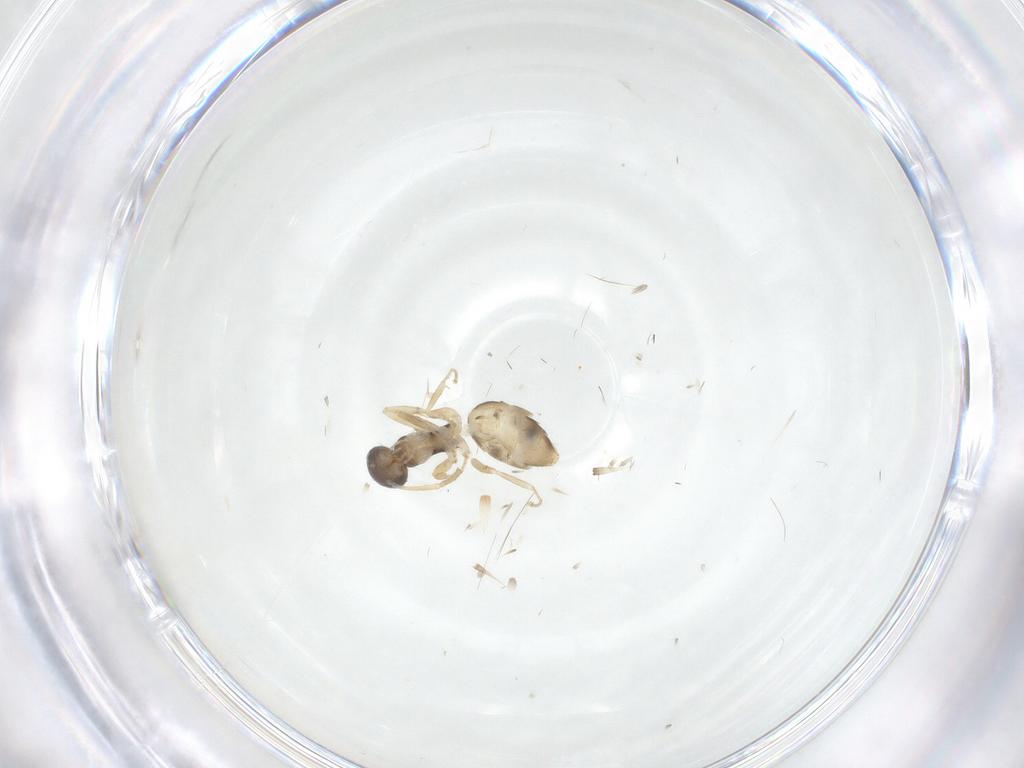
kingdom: Animalia
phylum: Arthropoda
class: Insecta
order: Hymenoptera
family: Formicidae
